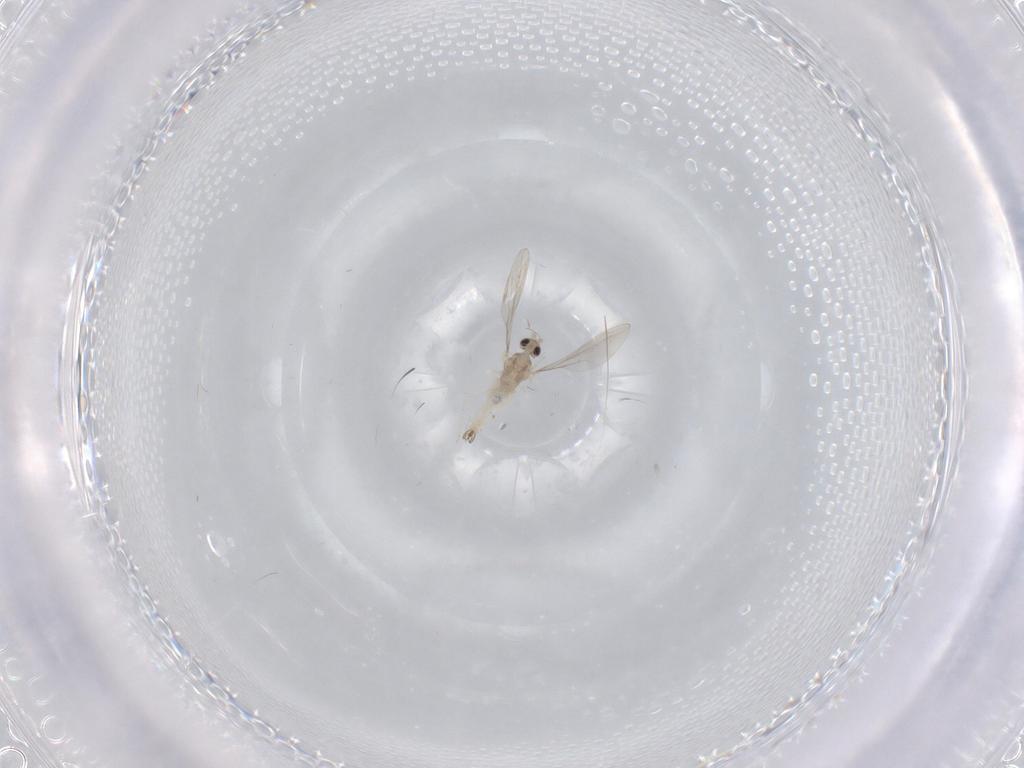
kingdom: Animalia
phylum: Arthropoda
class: Insecta
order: Diptera
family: Cecidomyiidae
